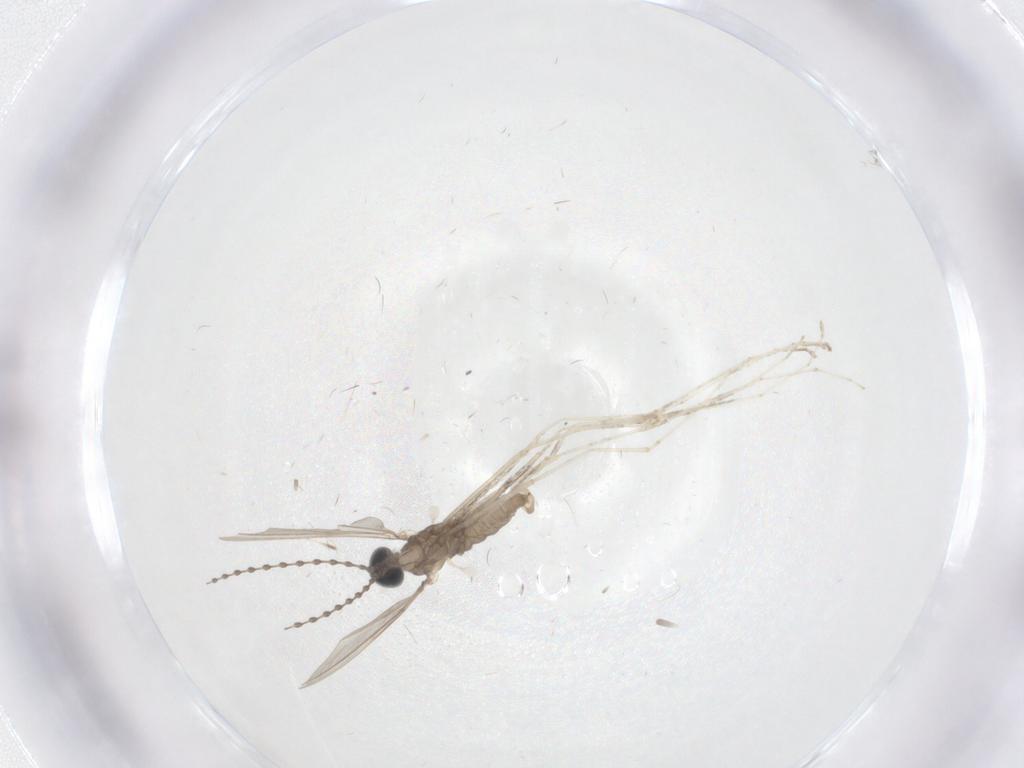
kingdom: Animalia
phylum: Arthropoda
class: Insecta
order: Diptera
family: Cecidomyiidae
